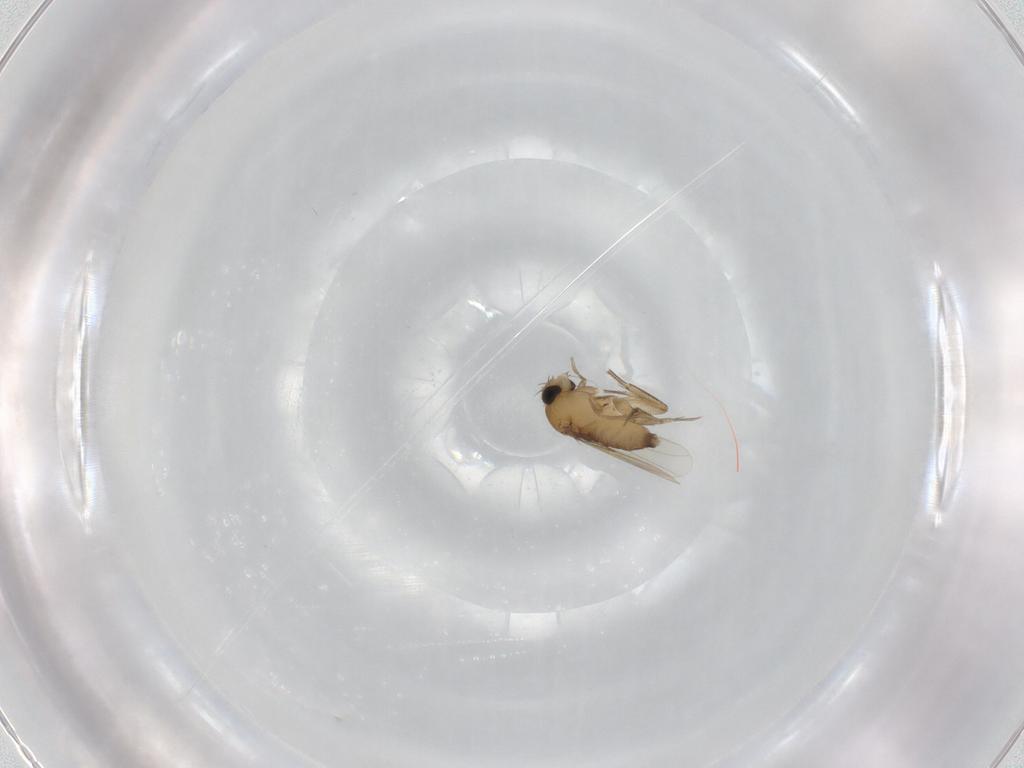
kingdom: Animalia
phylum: Arthropoda
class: Insecta
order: Diptera
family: Phoridae
